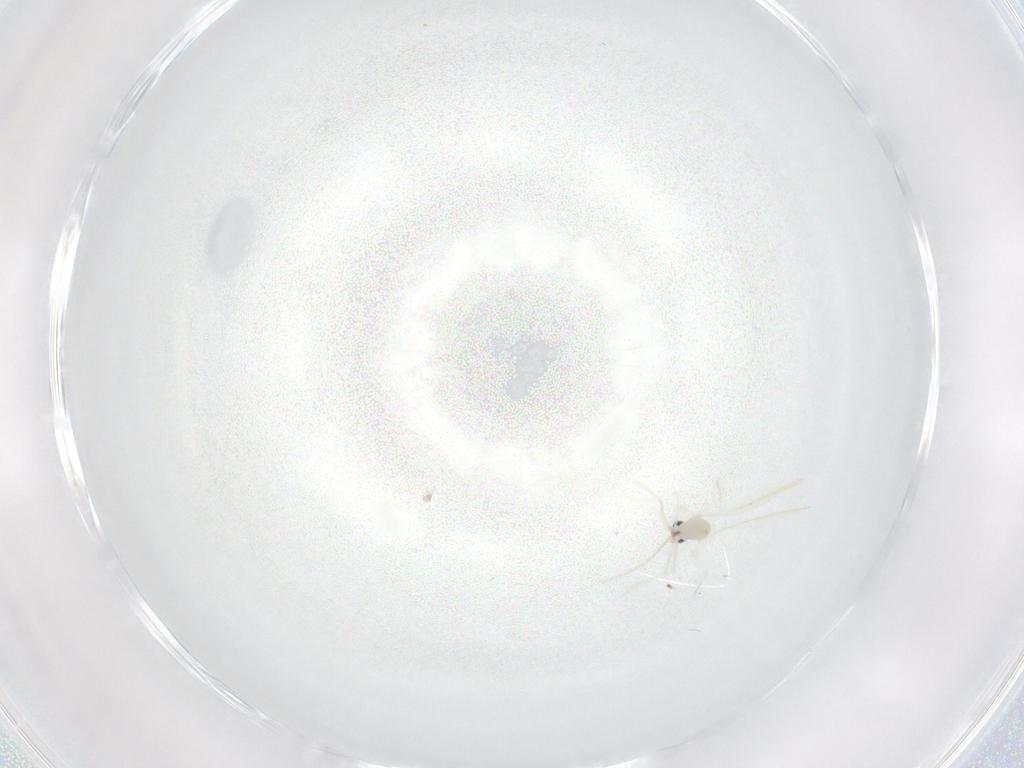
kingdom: Animalia
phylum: Arthropoda
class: Insecta
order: Diptera
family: Cecidomyiidae
